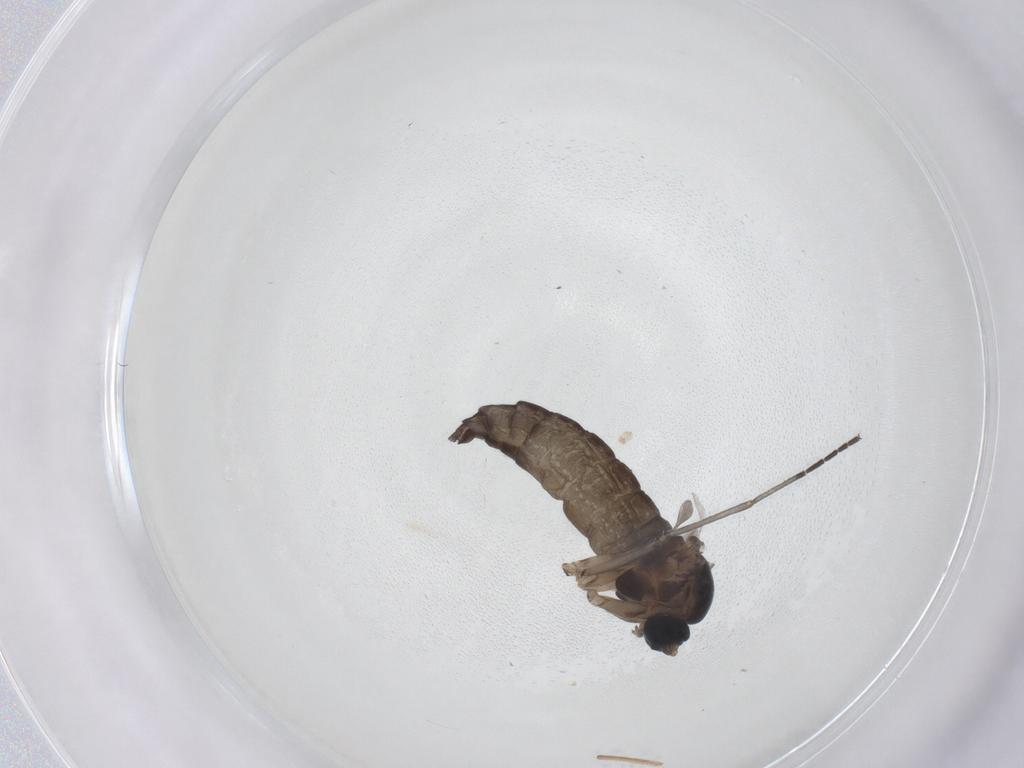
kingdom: Animalia
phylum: Arthropoda
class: Insecta
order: Diptera
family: Sciaridae
